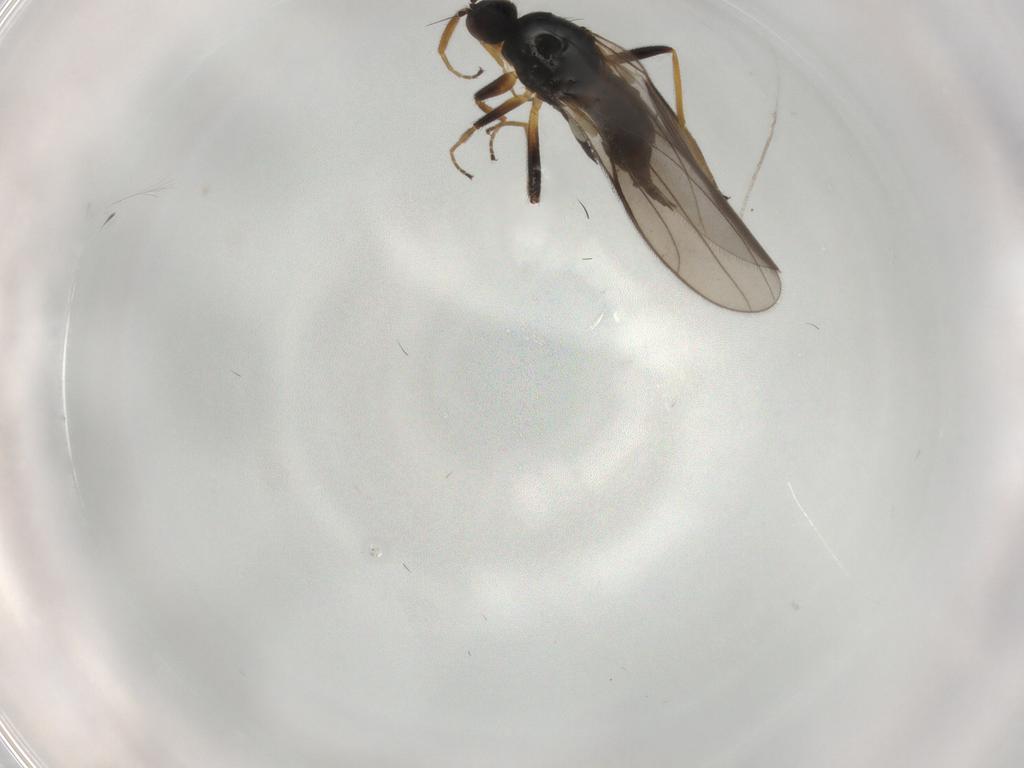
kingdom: Animalia
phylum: Arthropoda
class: Insecta
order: Diptera
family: Hybotidae
